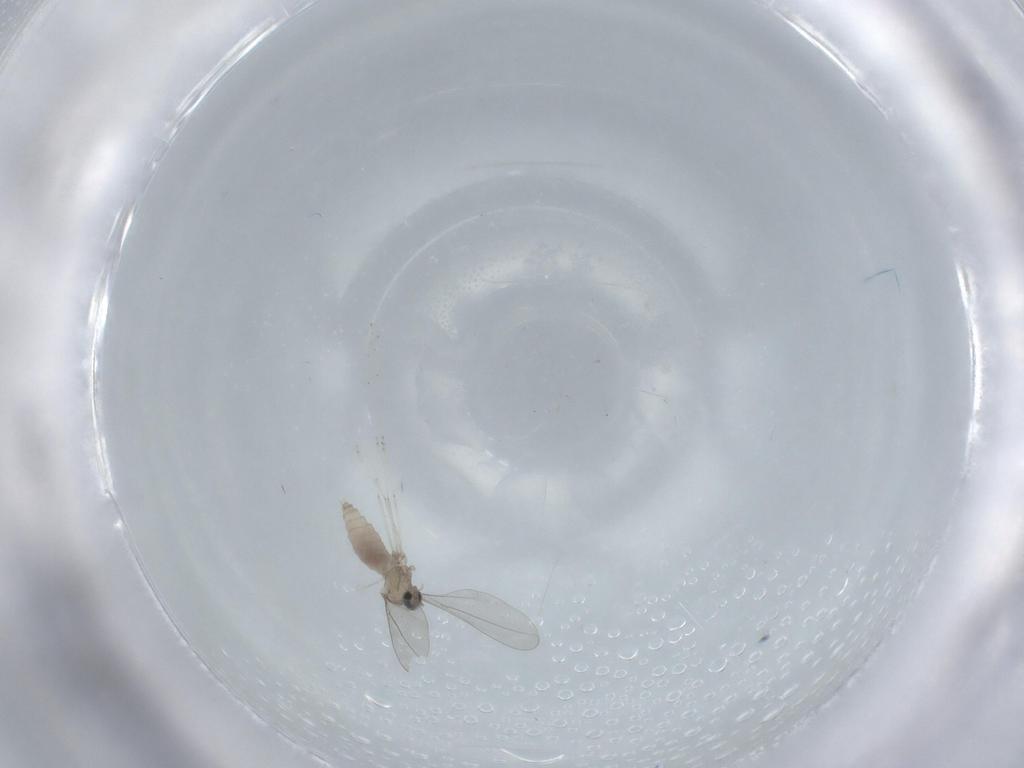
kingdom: Animalia
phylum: Arthropoda
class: Insecta
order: Diptera
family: Cecidomyiidae
